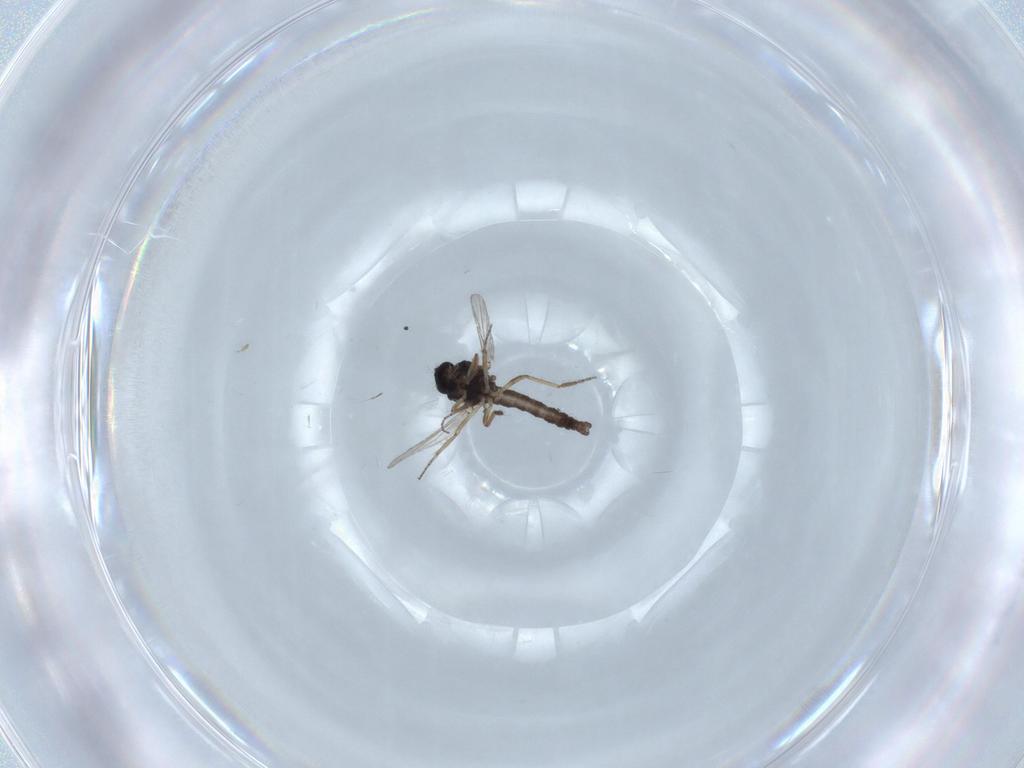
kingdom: Animalia
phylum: Arthropoda
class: Insecta
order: Diptera
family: Ceratopogonidae
